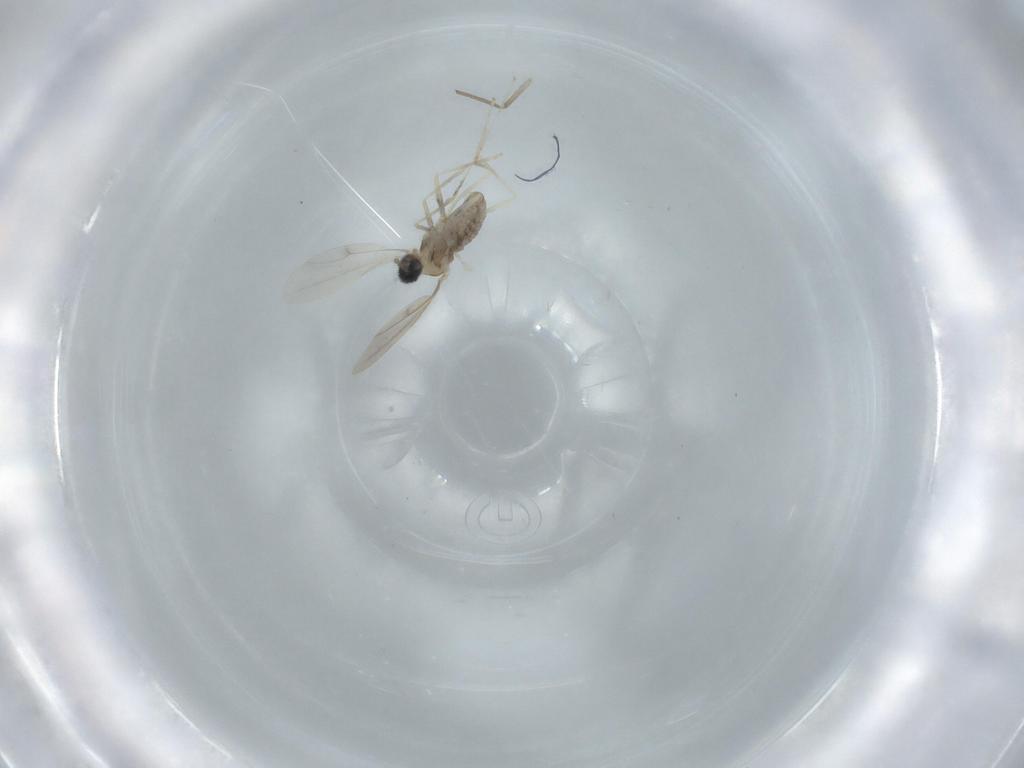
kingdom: Animalia
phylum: Arthropoda
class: Insecta
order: Diptera
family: Cecidomyiidae
